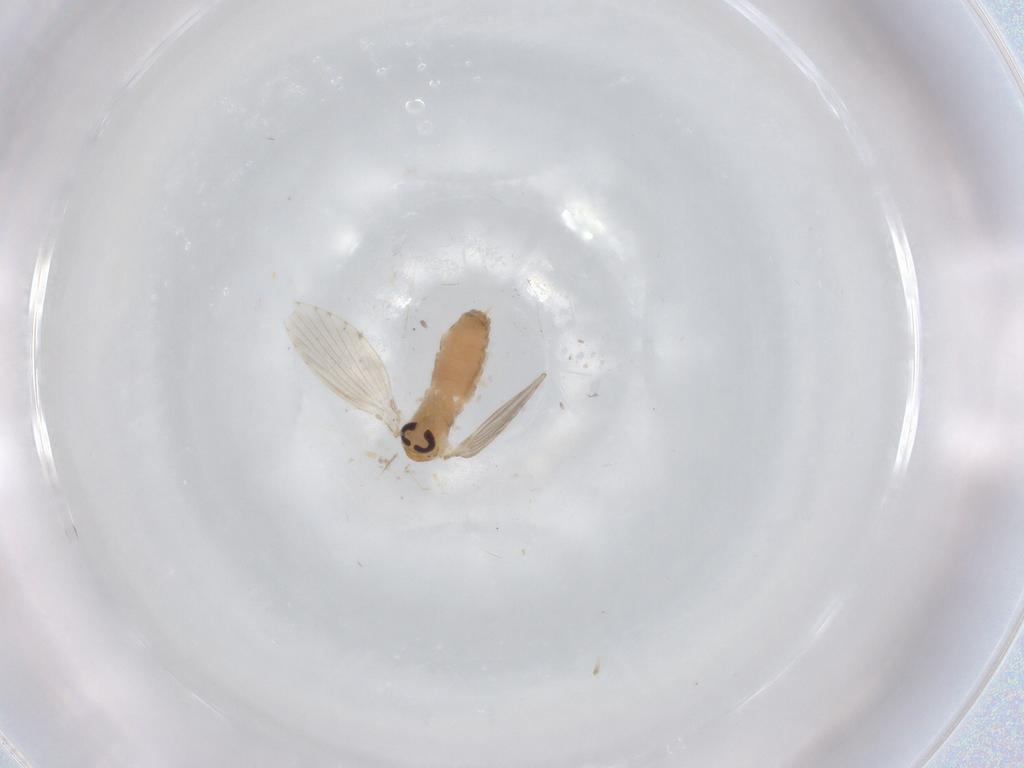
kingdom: Animalia
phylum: Arthropoda
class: Insecta
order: Diptera
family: Psychodidae
